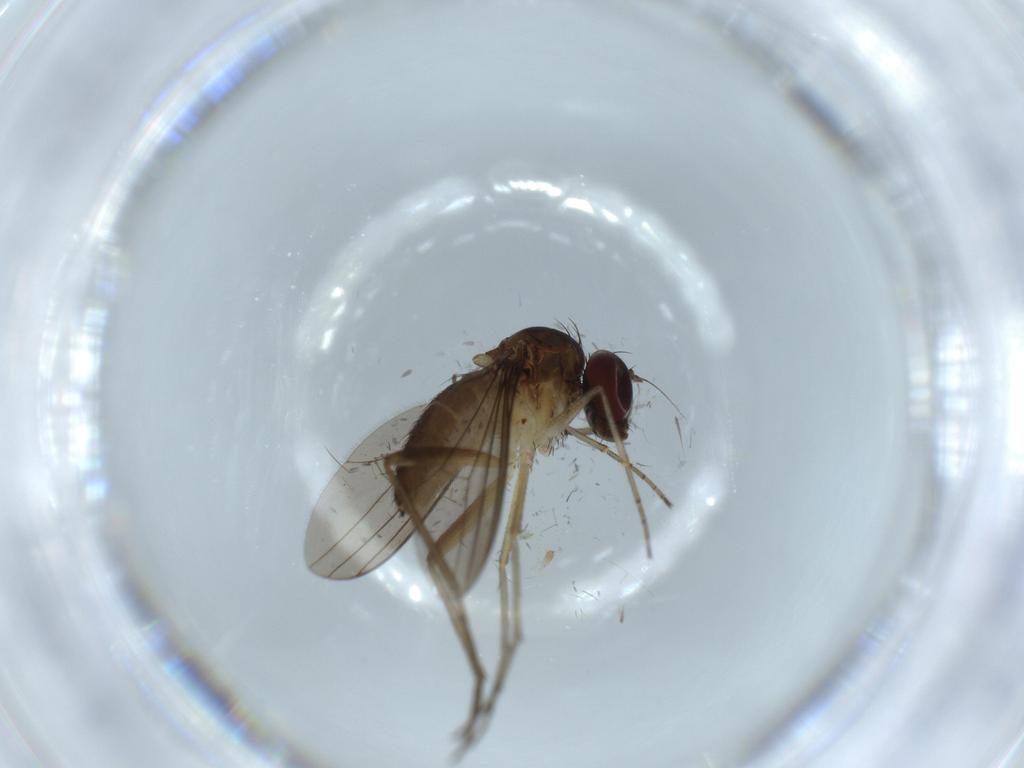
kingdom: Animalia
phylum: Arthropoda
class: Insecta
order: Diptera
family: Dolichopodidae
